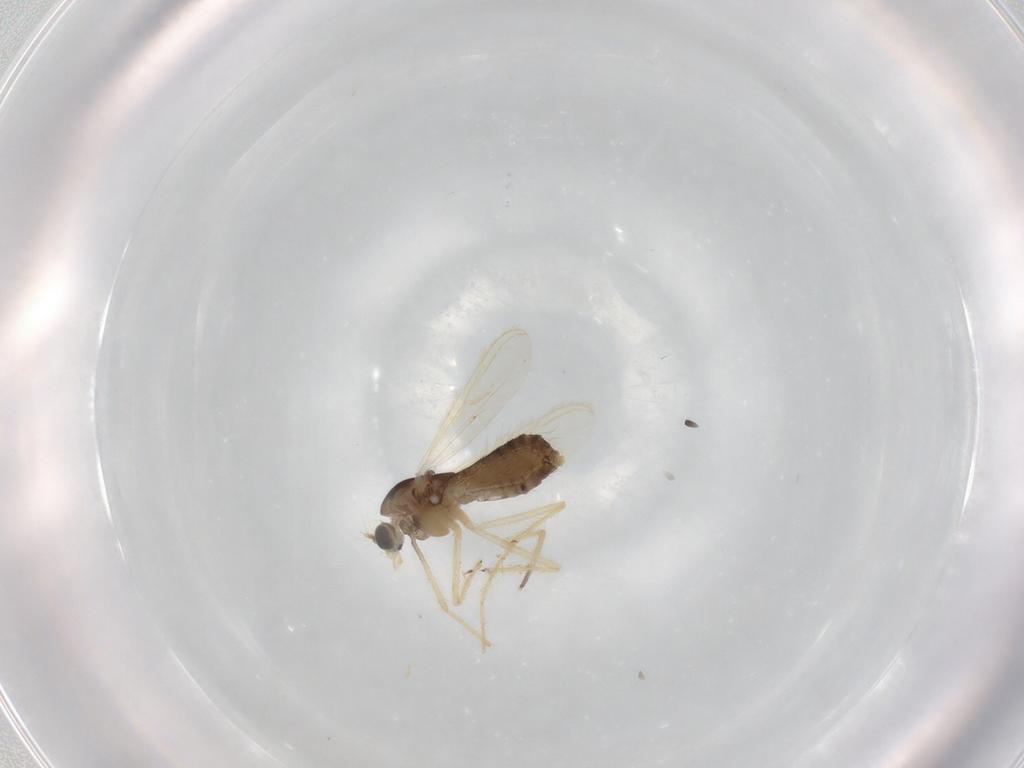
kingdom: Animalia
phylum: Arthropoda
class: Insecta
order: Diptera
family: Chironomidae
